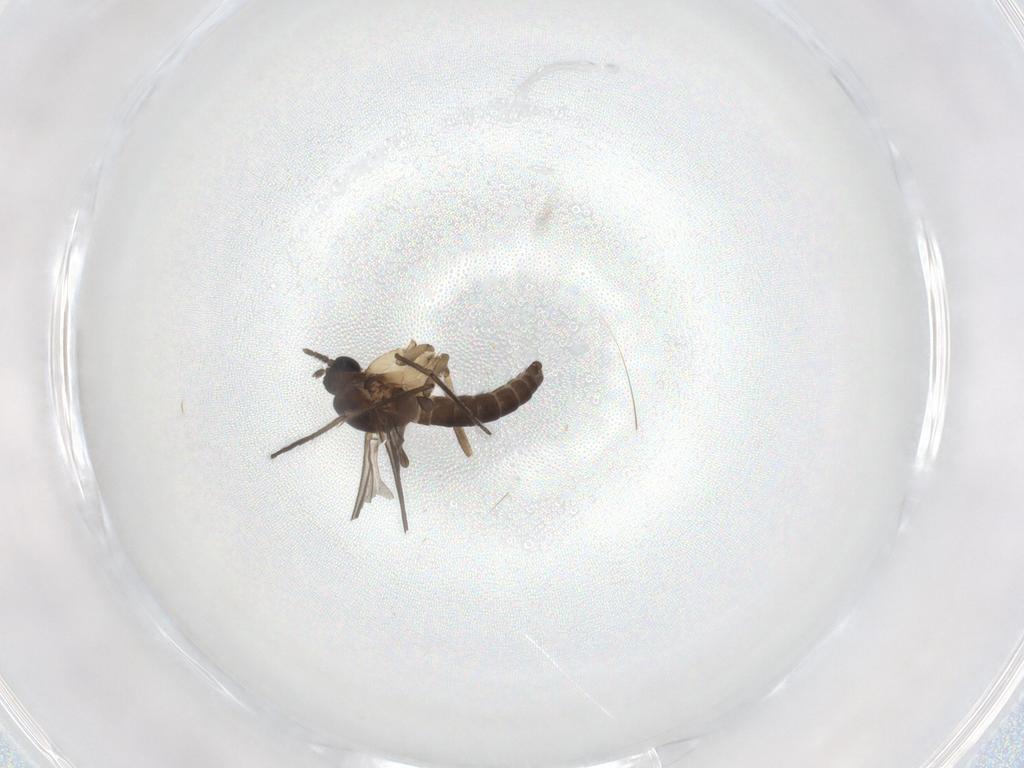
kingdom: Animalia
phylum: Arthropoda
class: Insecta
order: Diptera
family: Sciaridae
